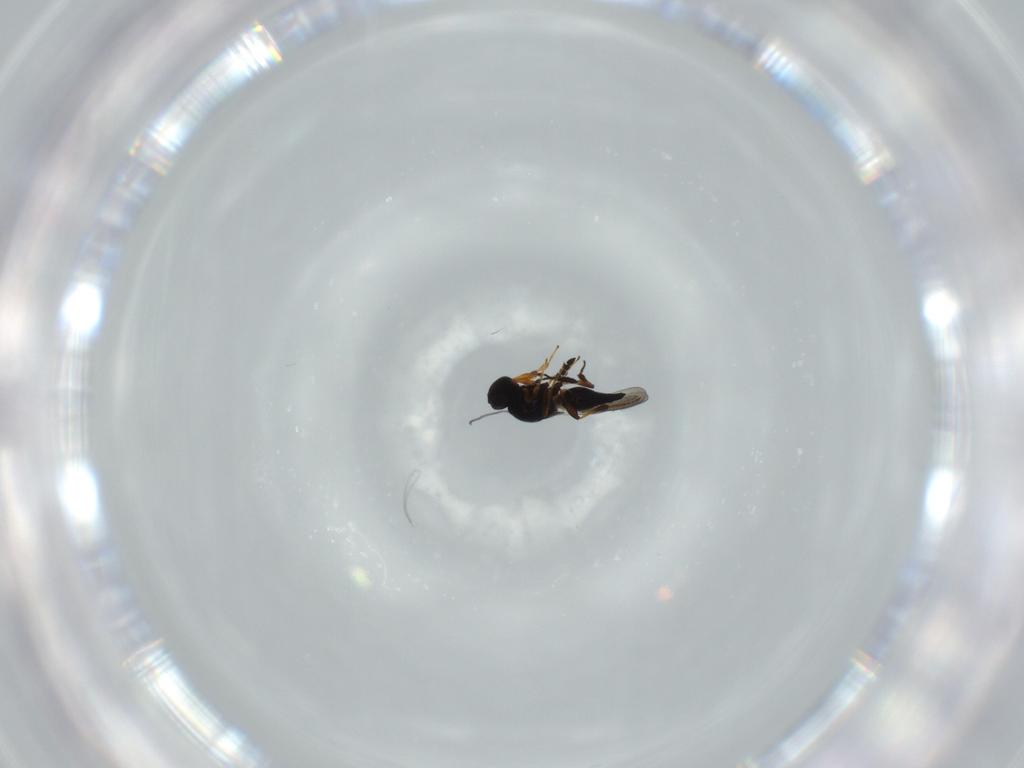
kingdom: Animalia
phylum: Arthropoda
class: Insecta
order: Hymenoptera
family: Platygastridae
